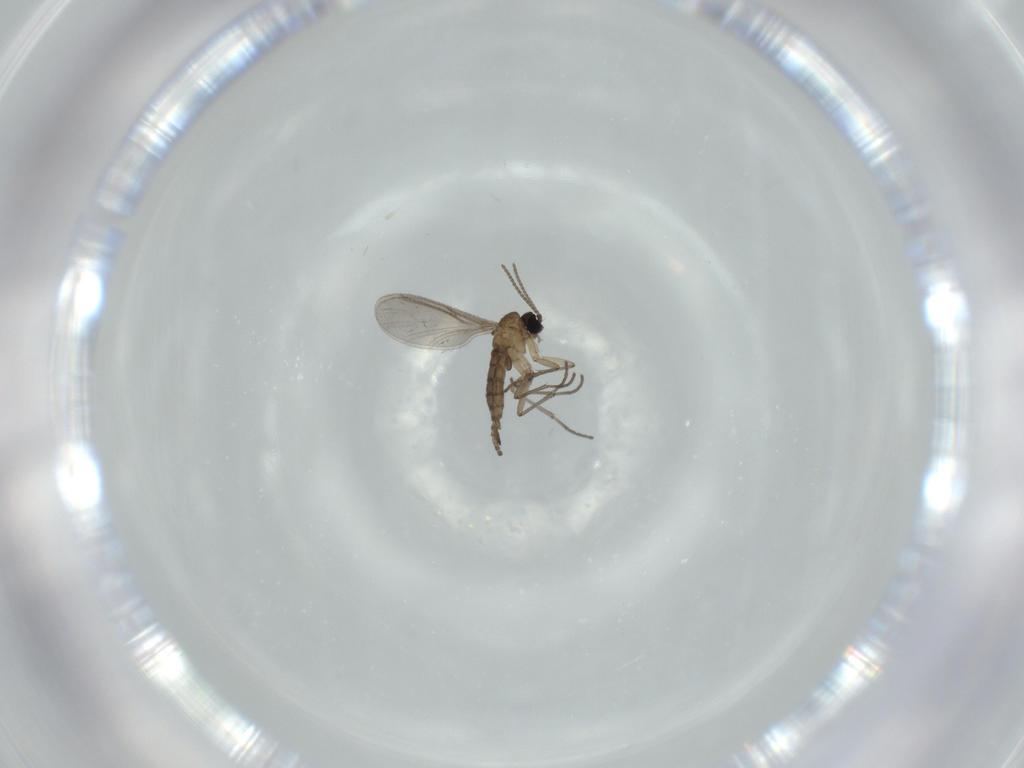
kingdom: Animalia
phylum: Arthropoda
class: Insecta
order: Diptera
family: Sciaridae
